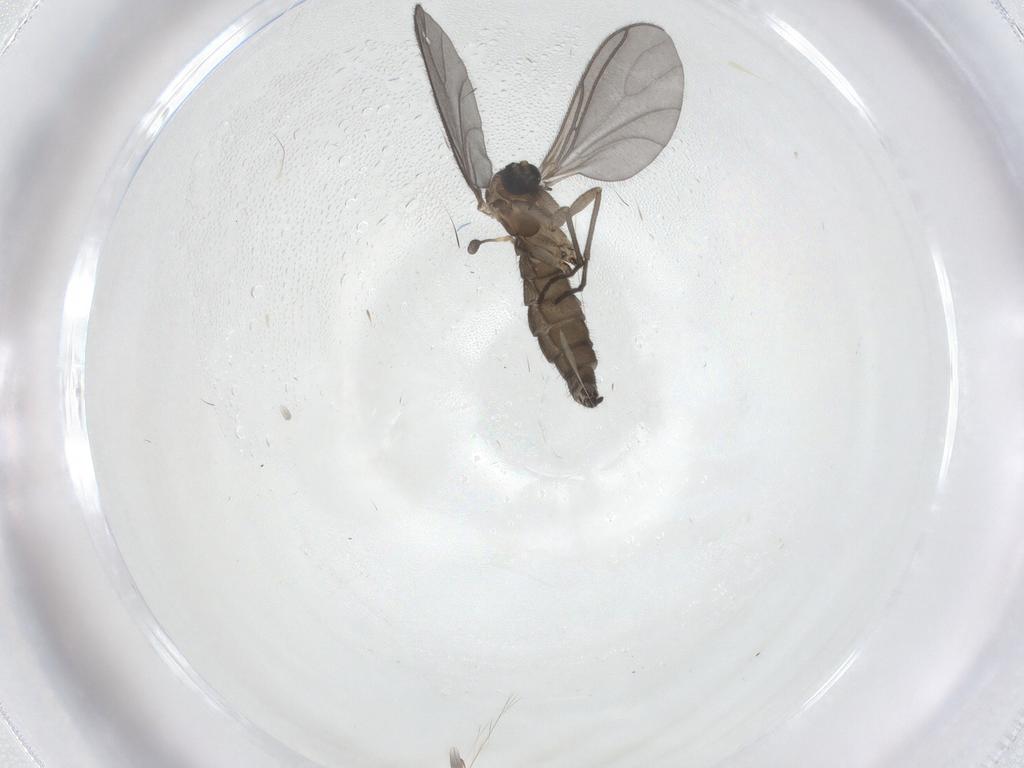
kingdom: Animalia
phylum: Arthropoda
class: Insecta
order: Diptera
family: Sciaridae
